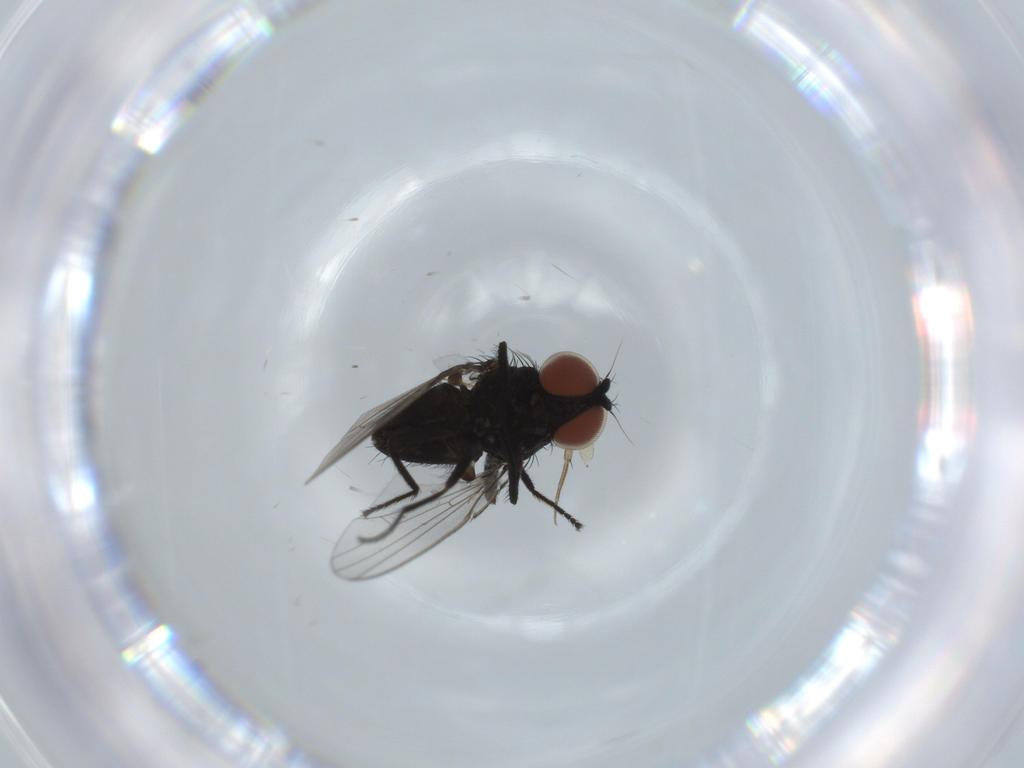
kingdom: Animalia
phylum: Arthropoda
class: Insecta
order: Diptera
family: Milichiidae
